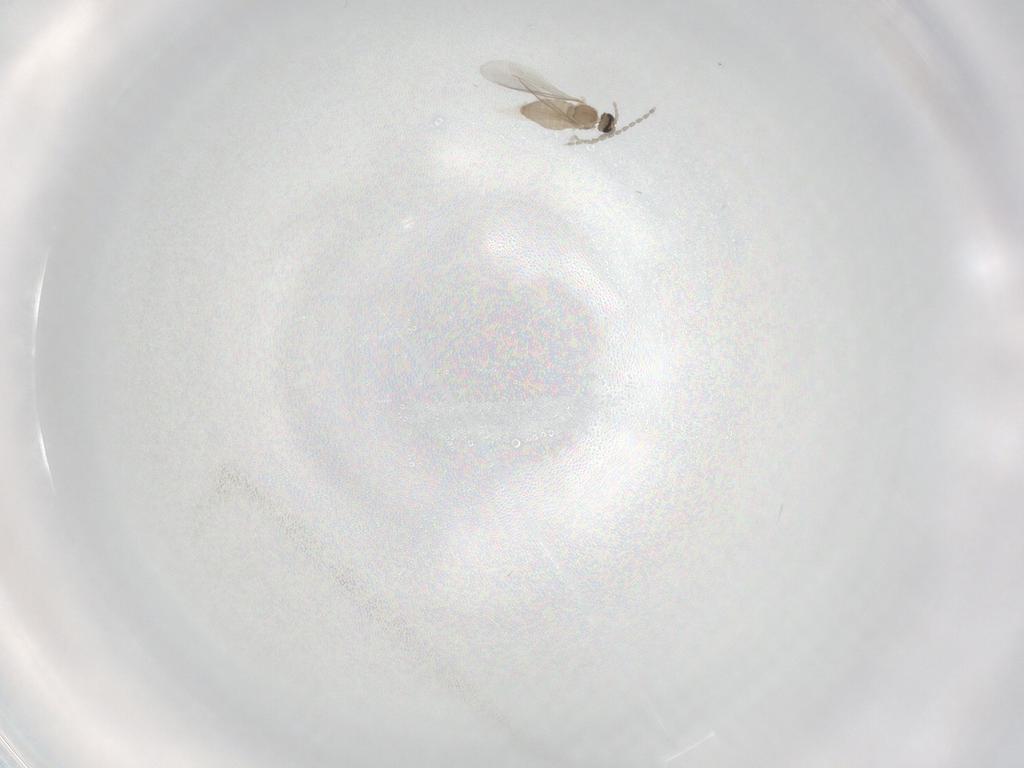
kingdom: Animalia
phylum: Arthropoda
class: Insecta
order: Diptera
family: Cecidomyiidae
